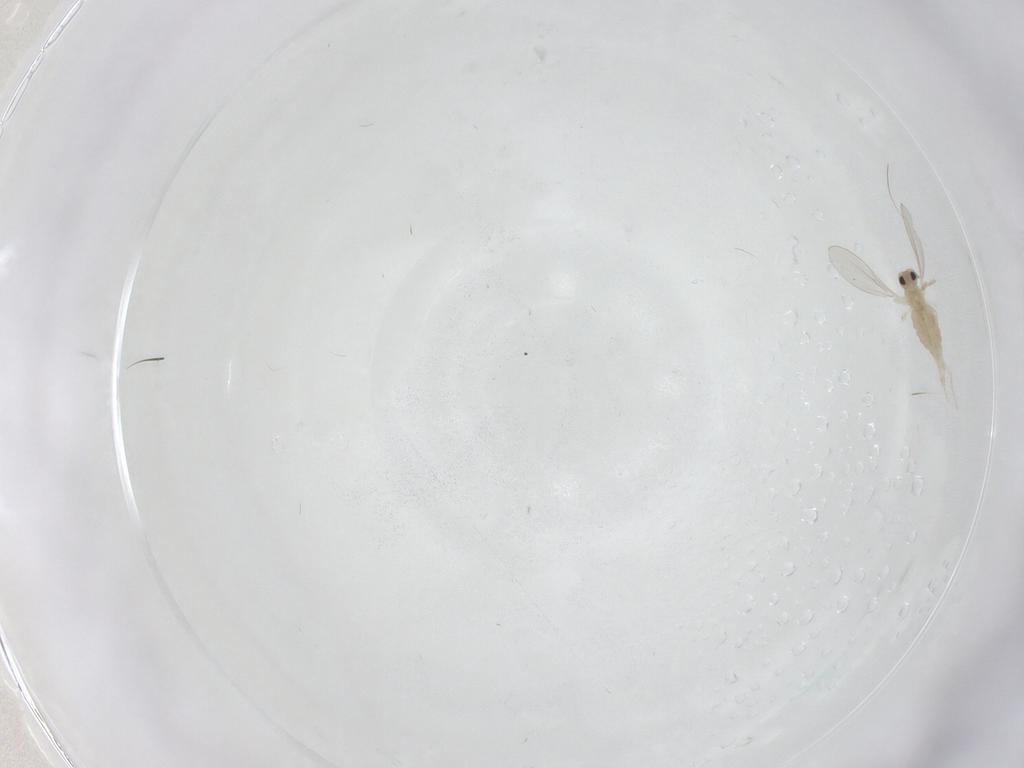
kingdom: Animalia
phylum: Arthropoda
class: Insecta
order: Diptera
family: Cecidomyiidae
